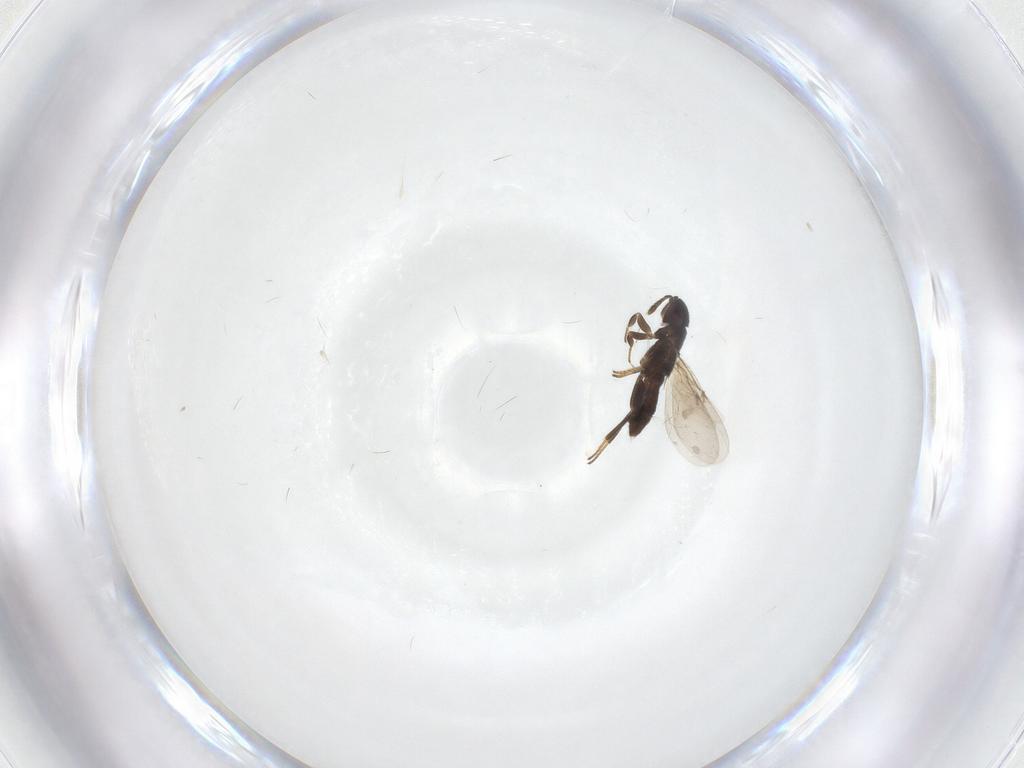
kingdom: Animalia
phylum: Arthropoda
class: Insecta
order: Hymenoptera
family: Encyrtidae
